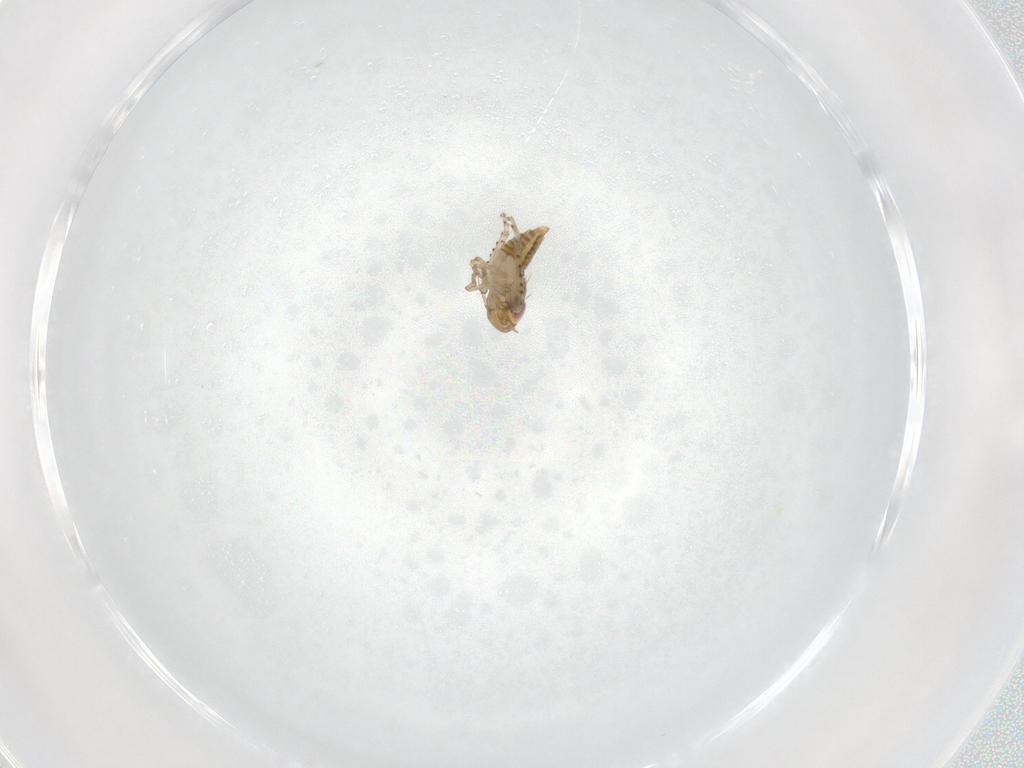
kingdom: Animalia
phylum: Arthropoda
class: Insecta
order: Hemiptera
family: Cicadellidae
